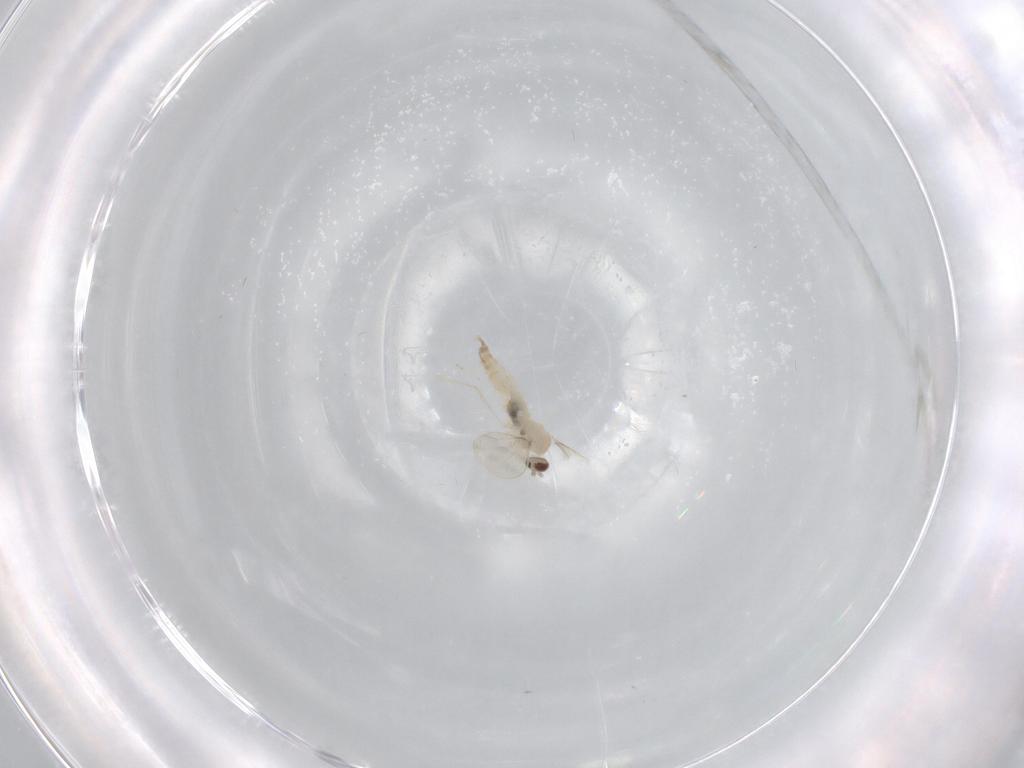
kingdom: Animalia
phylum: Arthropoda
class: Insecta
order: Diptera
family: Cecidomyiidae
